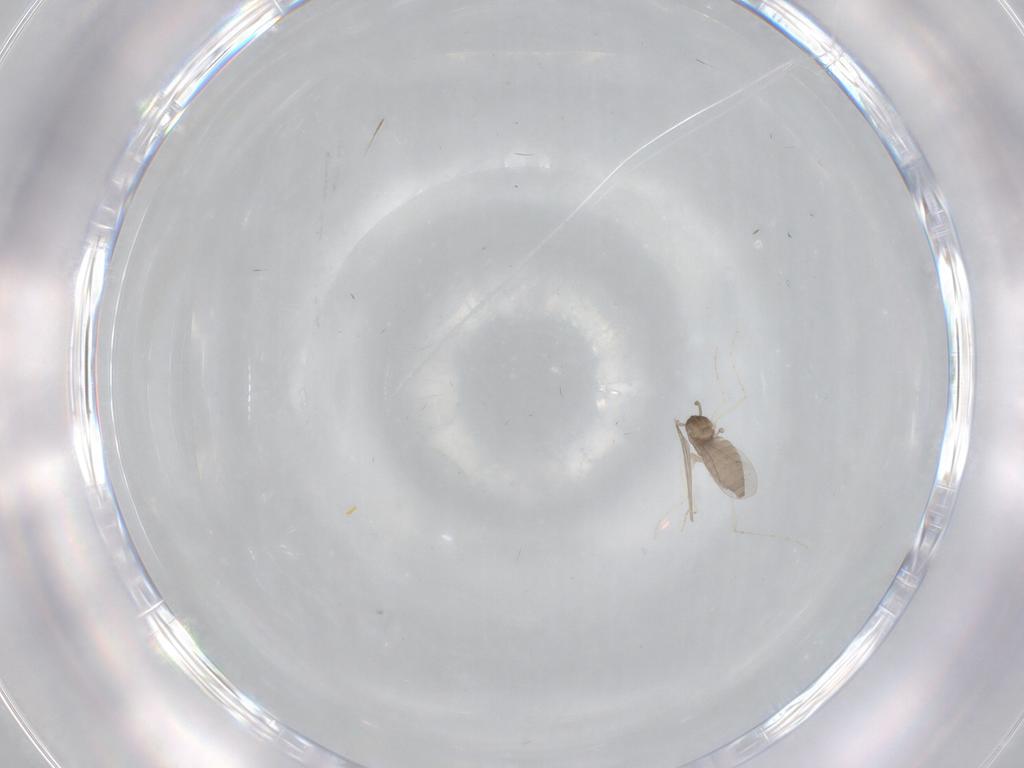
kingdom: Animalia
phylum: Arthropoda
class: Insecta
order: Diptera
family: Cecidomyiidae
